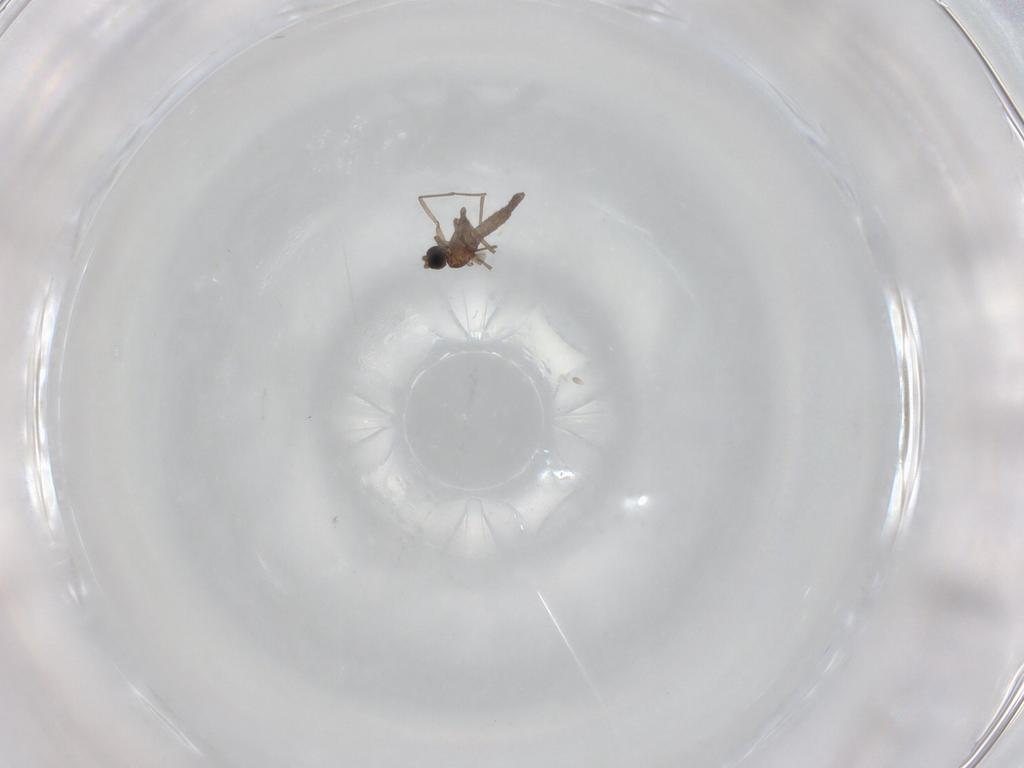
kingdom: Animalia
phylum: Arthropoda
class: Insecta
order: Diptera
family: Sciaridae
